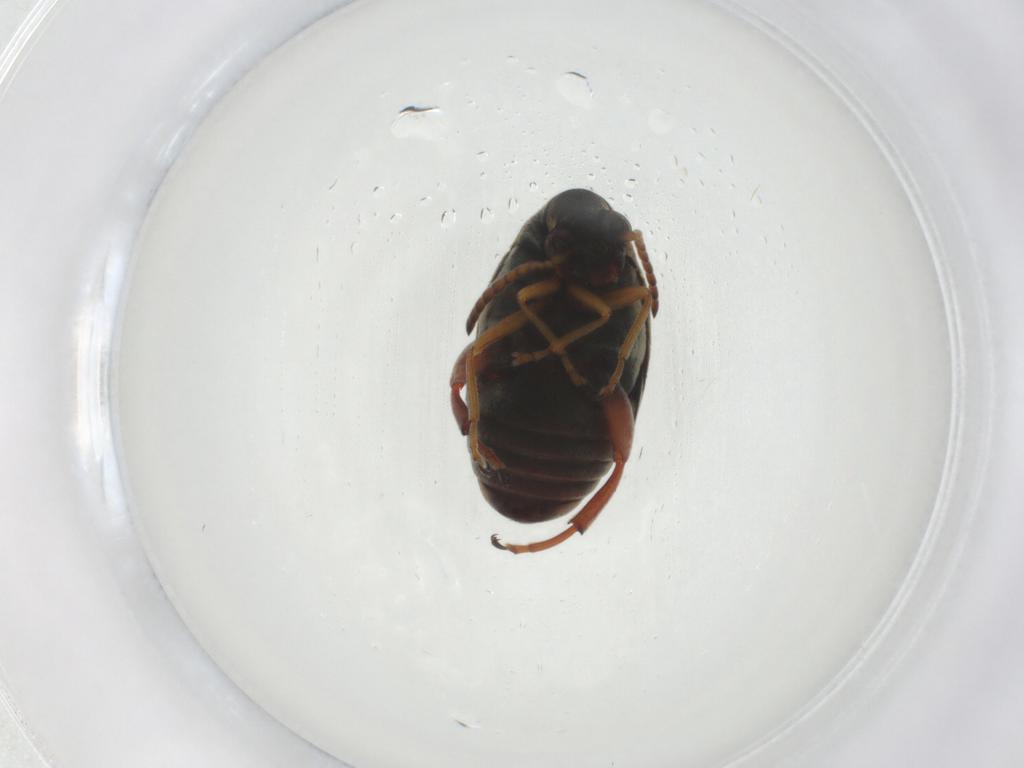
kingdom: Animalia
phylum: Arthropoda
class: Insecta
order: Coleoptera
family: Chrysomelidae
